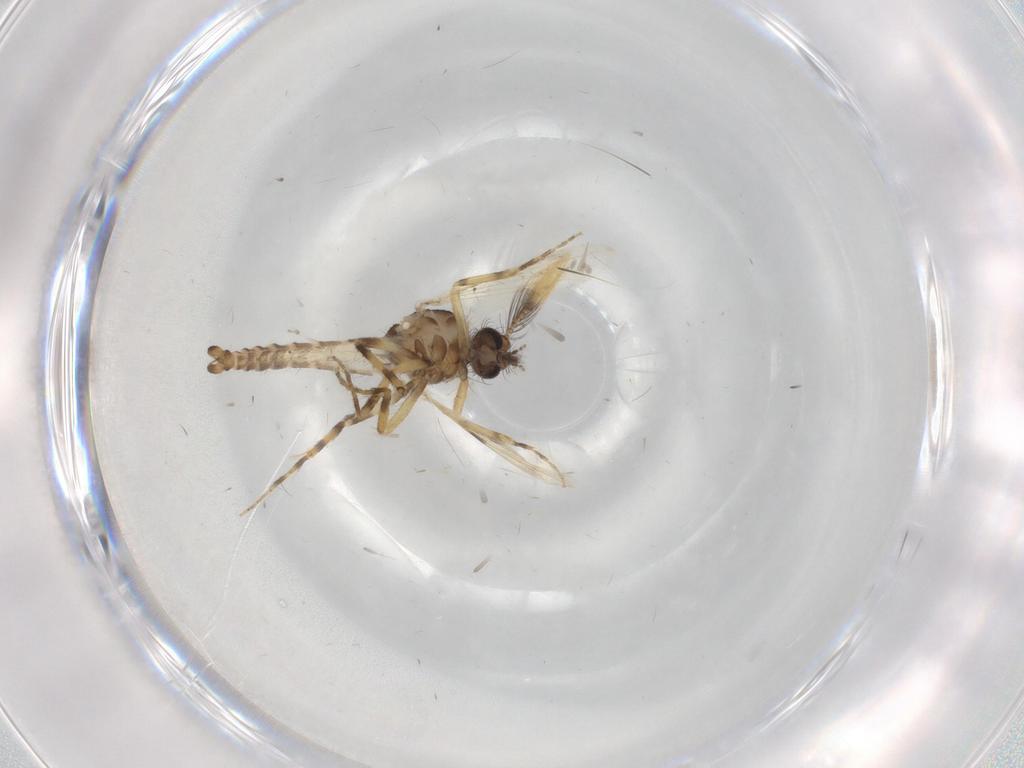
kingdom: Animalia
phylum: Arthropoda
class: Insecta
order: Diptera
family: Ceratopogonidae
